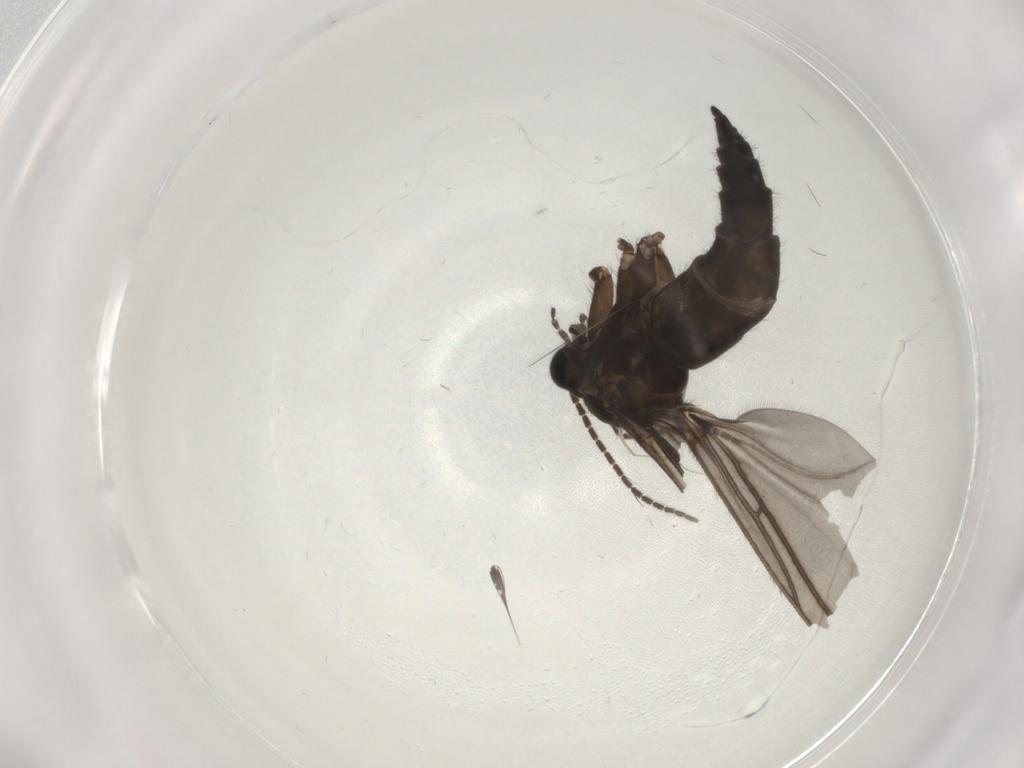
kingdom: Animalia
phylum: Arthropoda
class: Insecta
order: Diptera
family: Sciaridae
